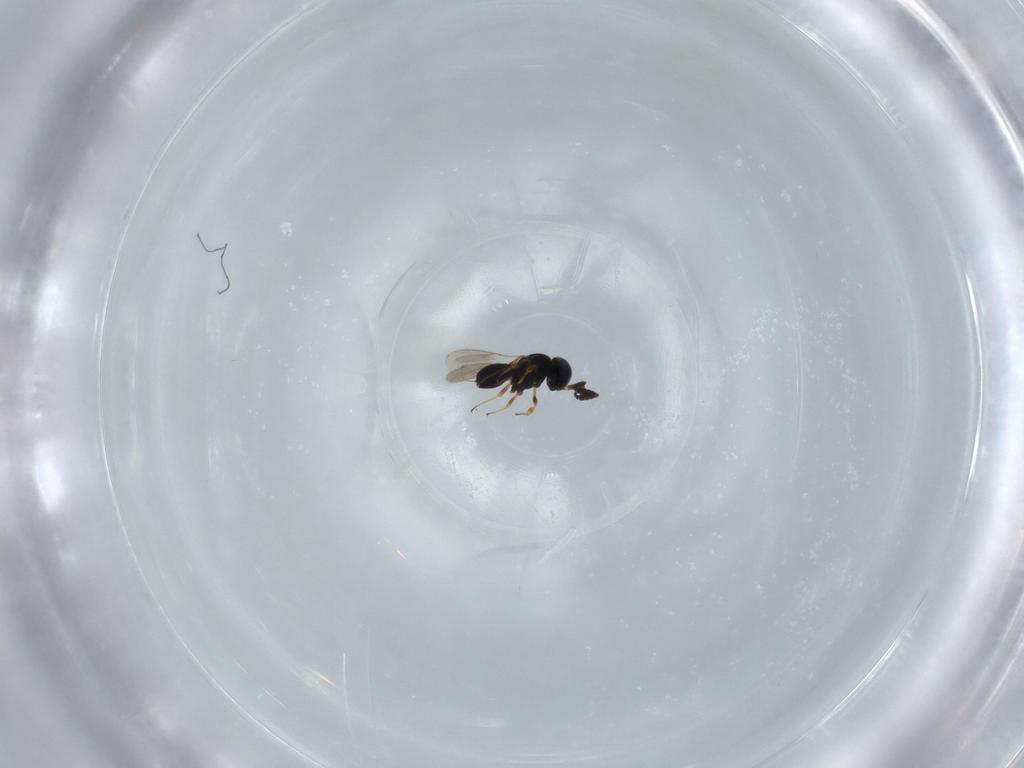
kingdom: Animalia
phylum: Arthropoda
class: Insecta
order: Hymenoptera
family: Scelionidae
